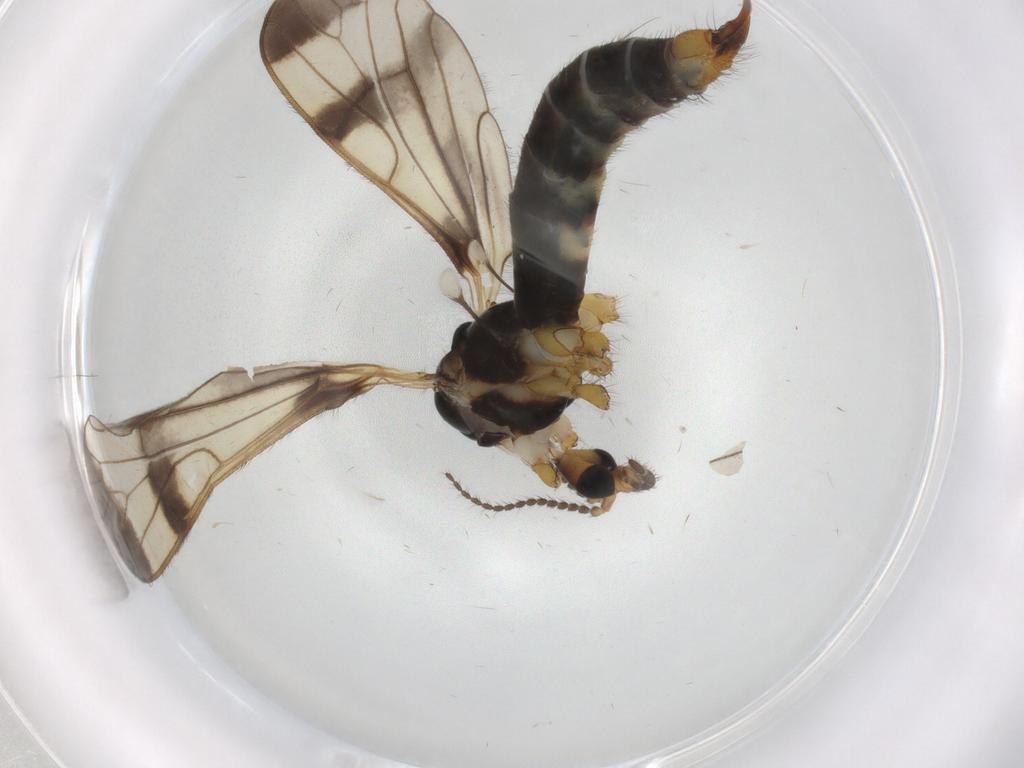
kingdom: Animalia
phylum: Arthropoda
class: Insecta
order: Diptera
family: Limoniidae
